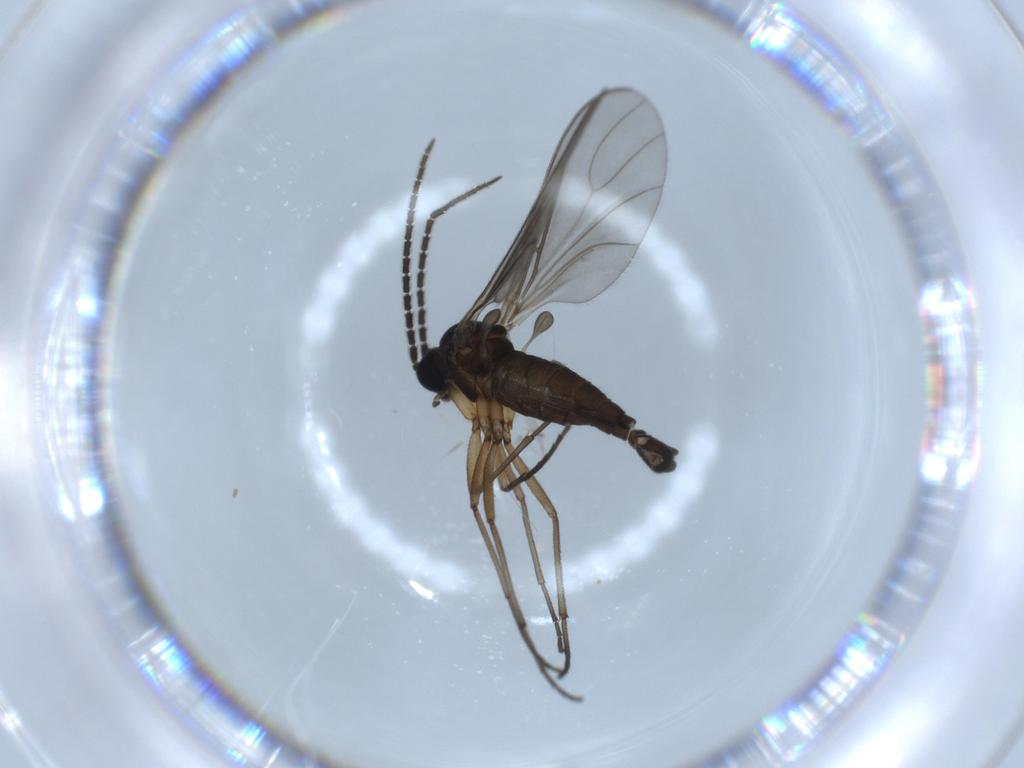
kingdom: Animalia
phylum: Arthropoda
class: Insecta
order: Diptera
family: Sciaridae
